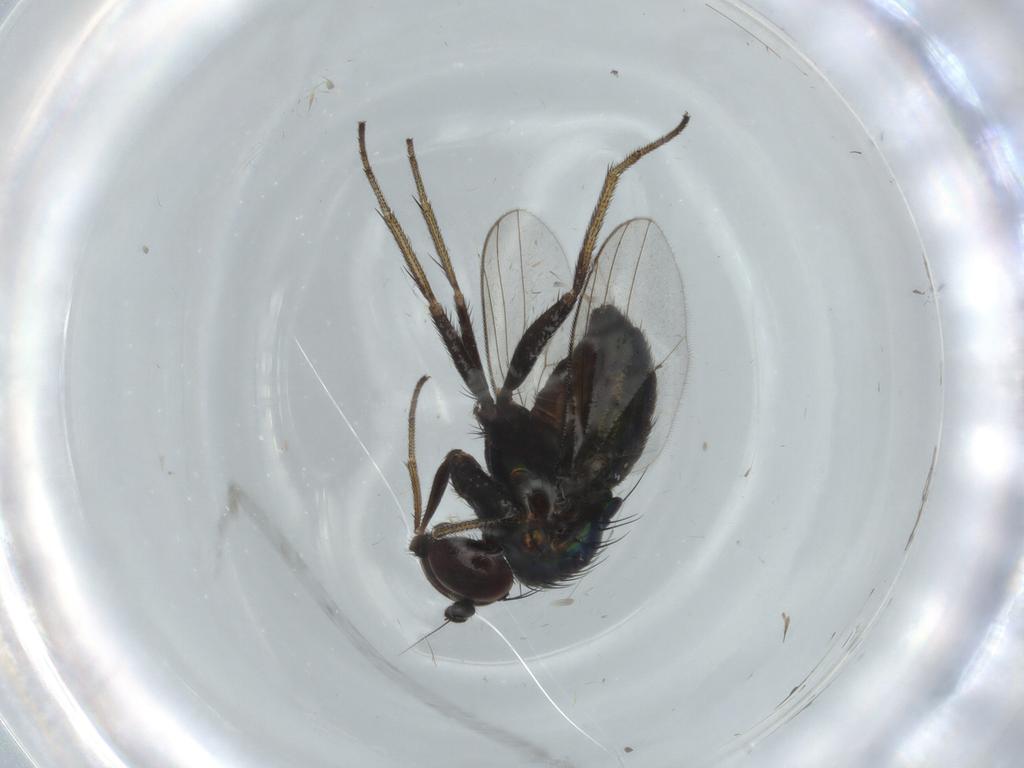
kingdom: Animalia
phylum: Arthropoda
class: Insecta
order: Diptera
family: Dolichopodidae
